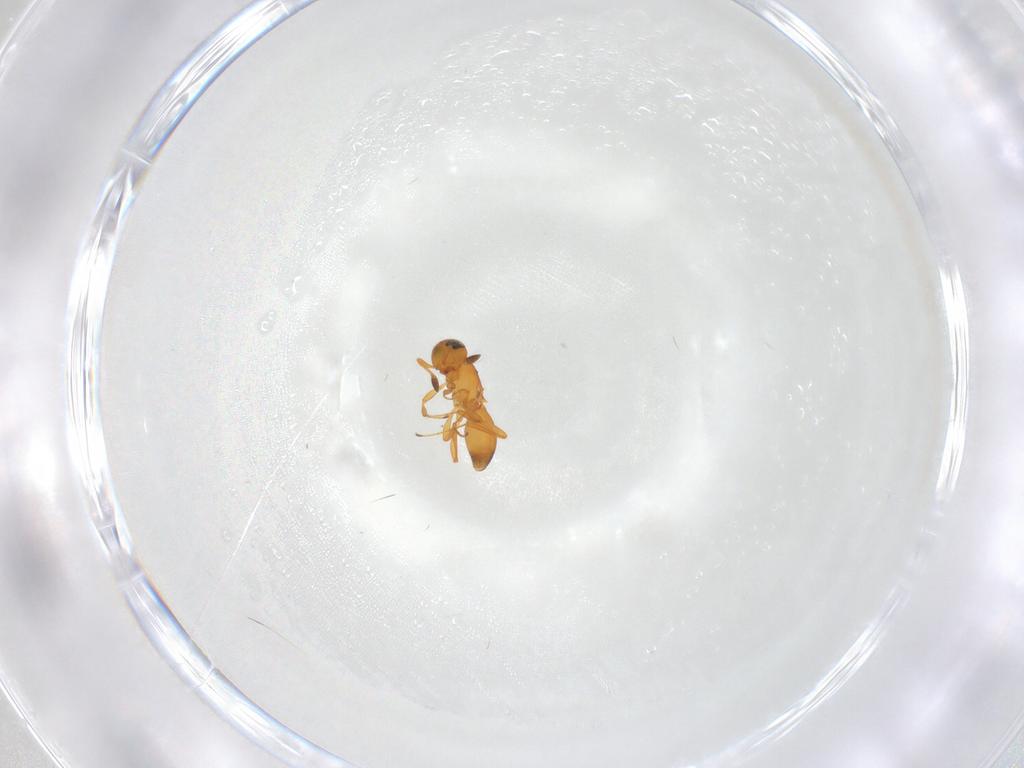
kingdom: Animalia
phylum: Arthropoda
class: Insecta
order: Hymenoptera
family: Platygastridae
